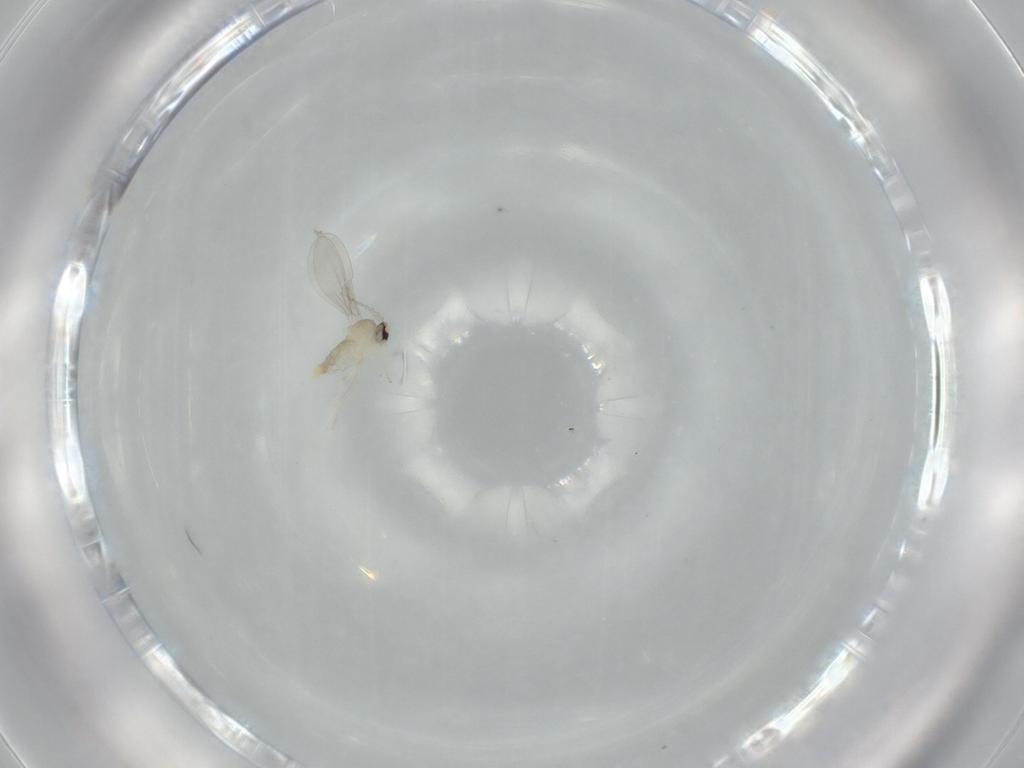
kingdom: Animalia
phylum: Arthropoda
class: Insecta
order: Diptera
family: Cecidomyiidae
